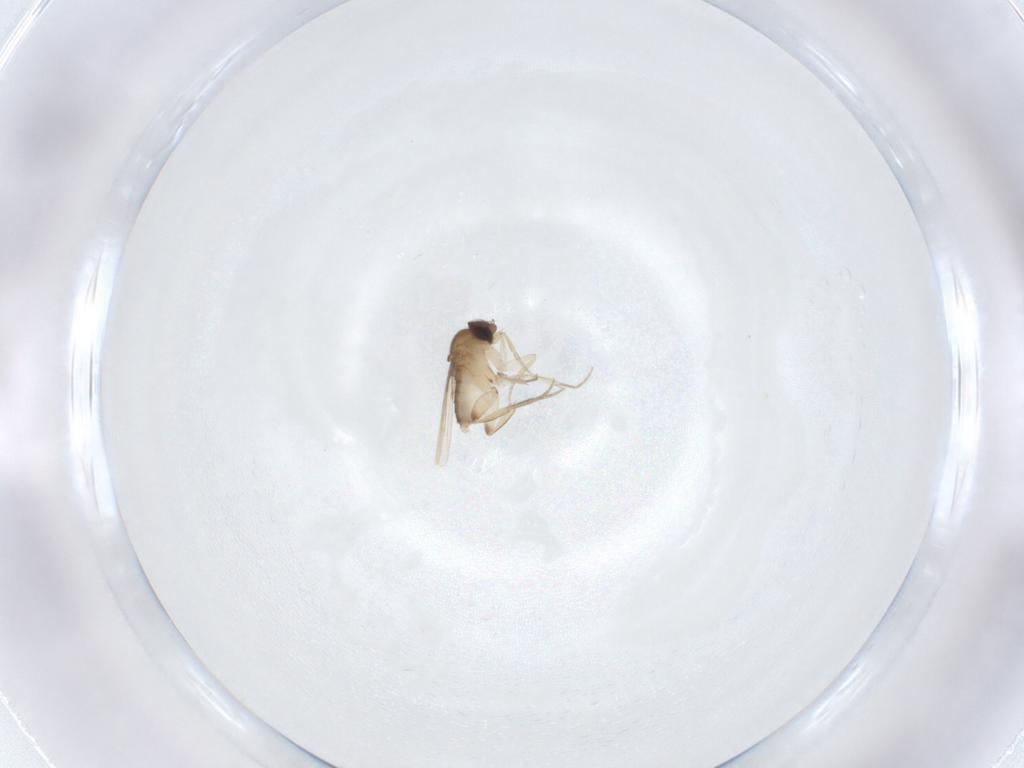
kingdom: Animalia
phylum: Arthropoda
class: Insecta
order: Diptera
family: Phoridae
